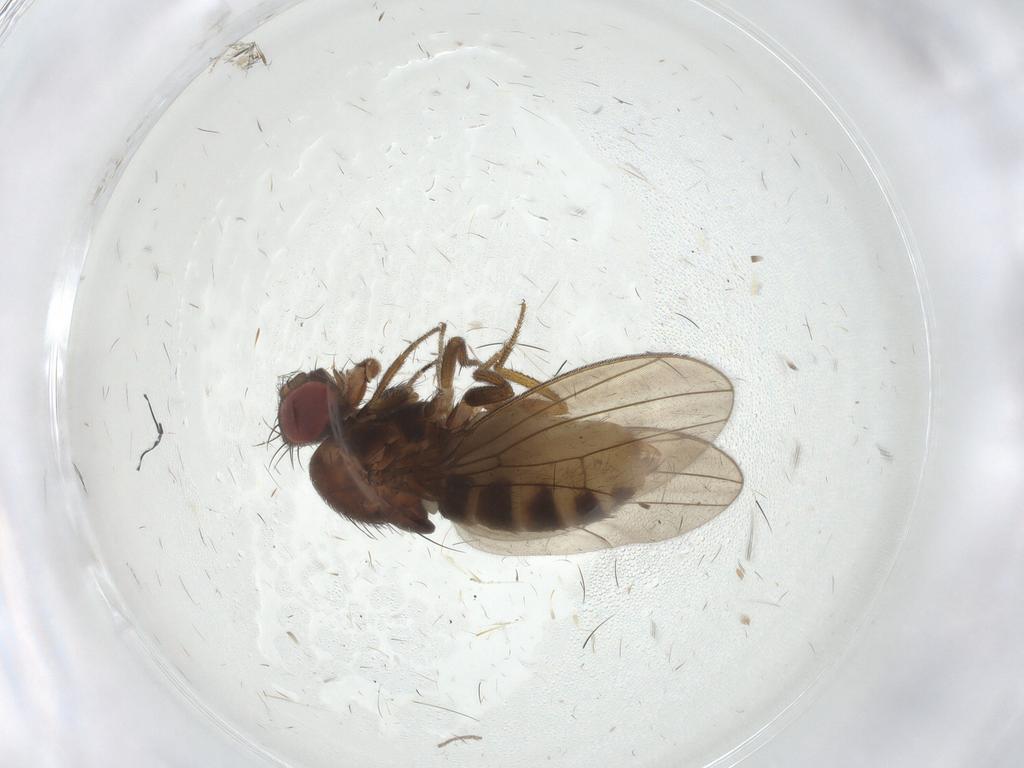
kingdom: Animalia
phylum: Arthropoda
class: Insecta
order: Diptera
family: Drosophilidae
